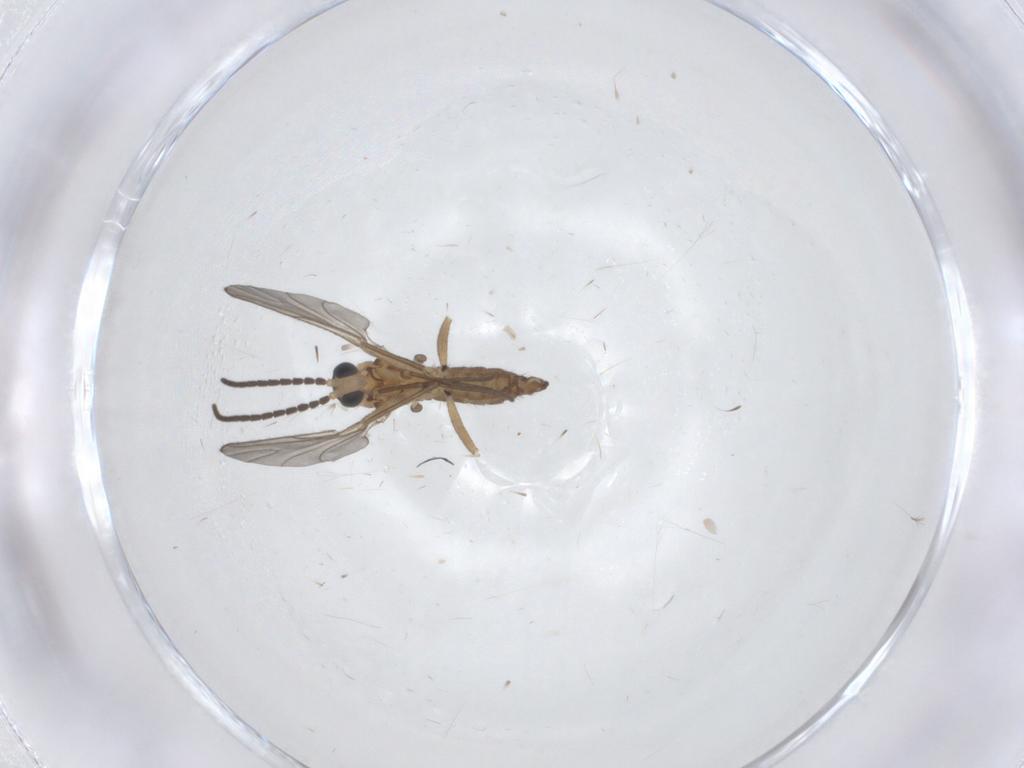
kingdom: Animalia
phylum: Arthropoda
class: Insecta
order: Diptera
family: Sciaridae
